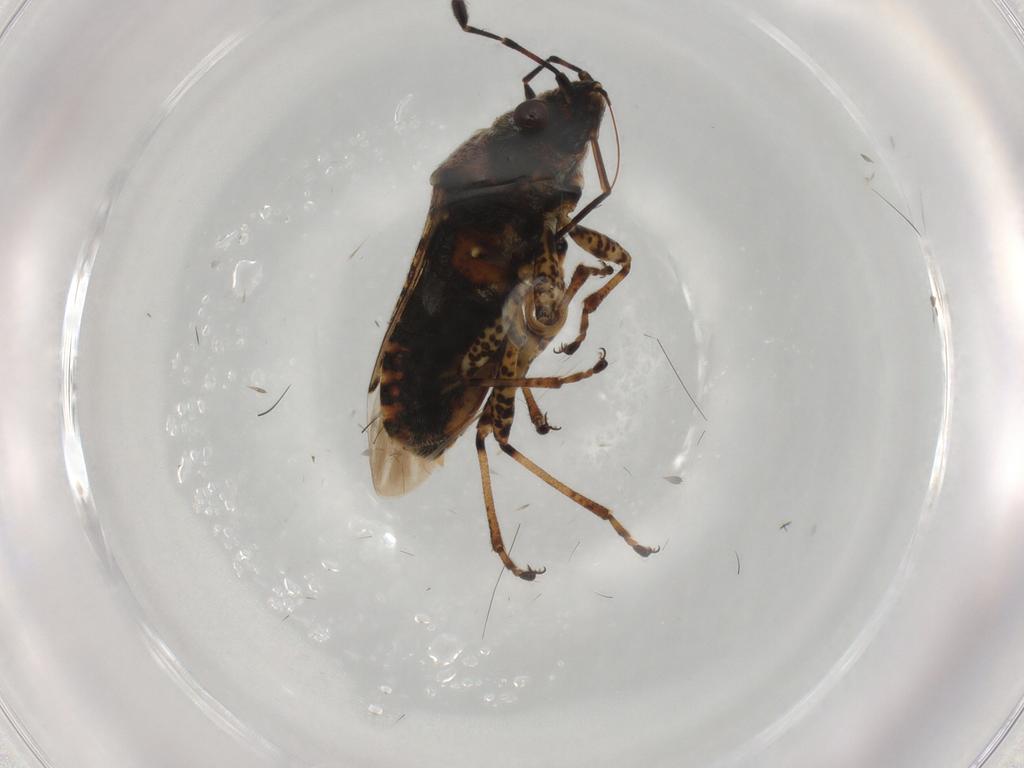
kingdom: Animalia
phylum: Arthropoda
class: Insecta
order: Hemiptera
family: Lygaeidae
